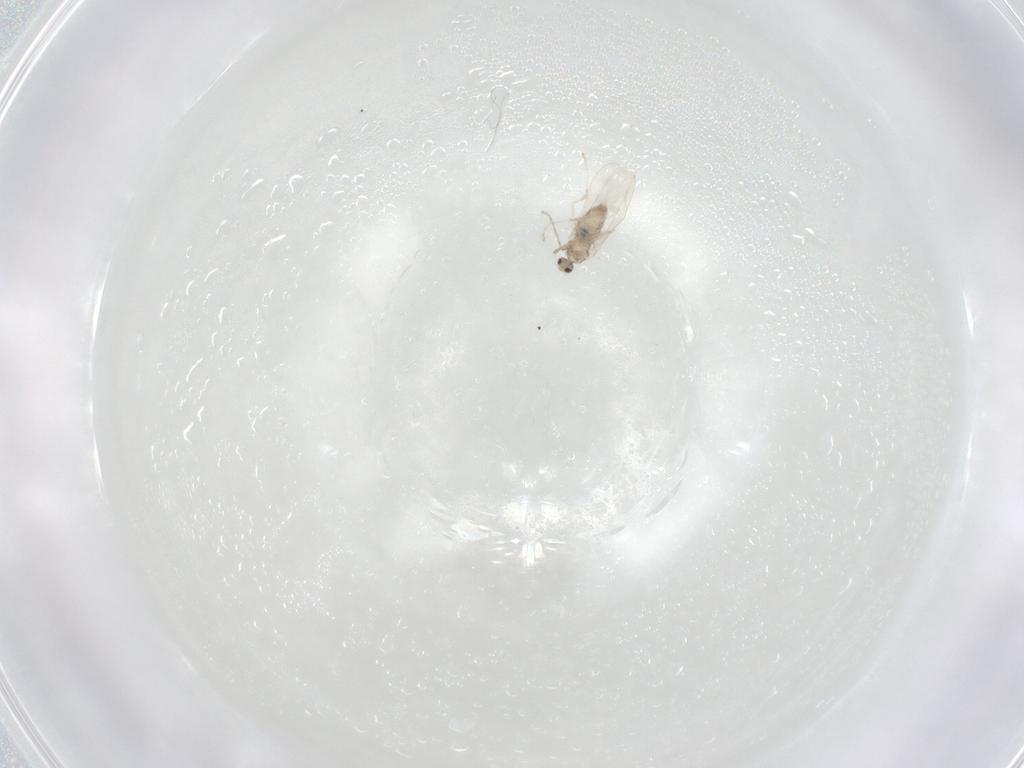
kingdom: Animalia
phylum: Arthropoda
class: Insecta
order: Diptera
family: Cecidomyiidae
